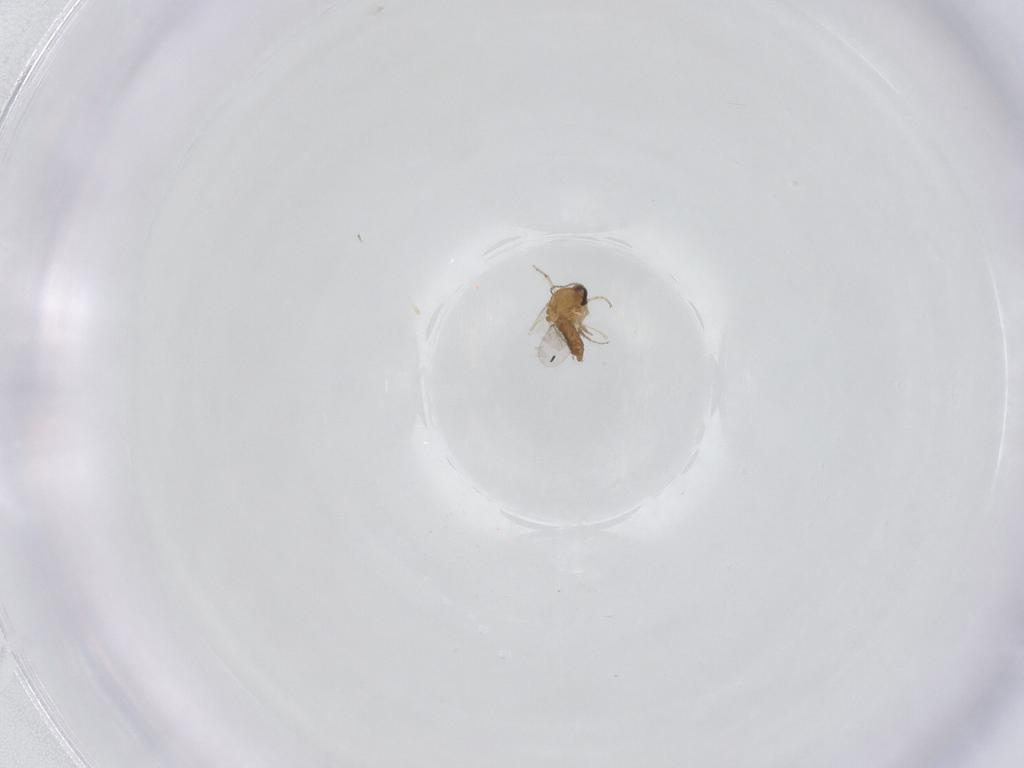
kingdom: Animalia
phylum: Arthropoda
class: Insecta
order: Diptera
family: Ceratopogonidae
